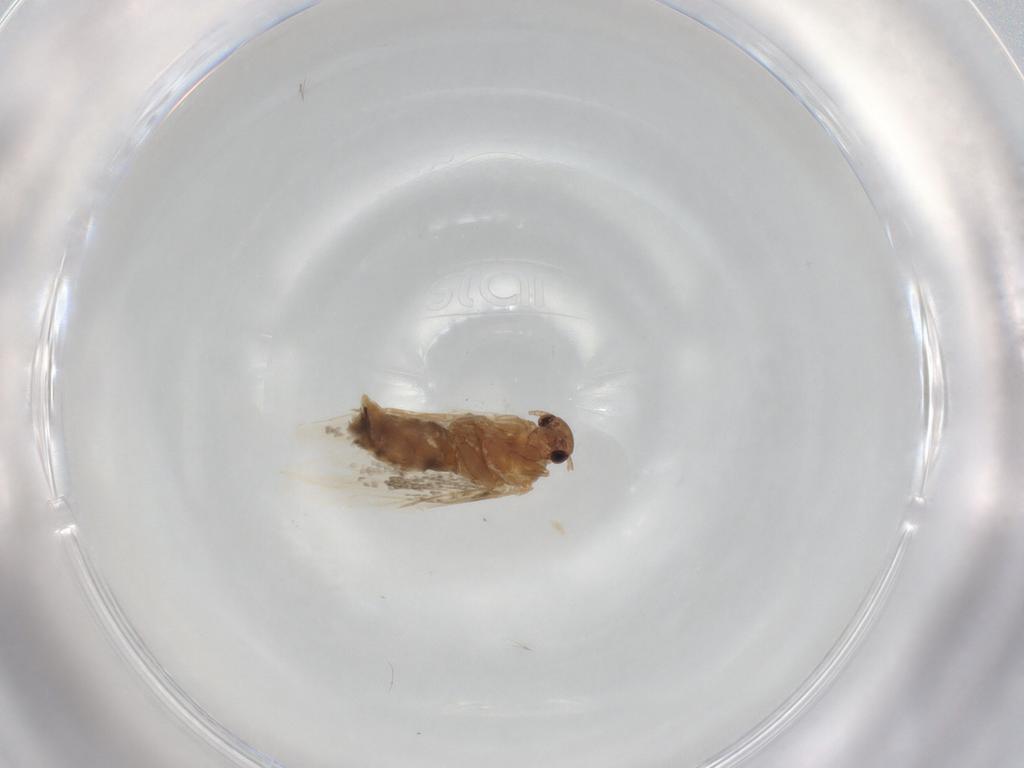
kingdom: Animalia
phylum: Arthropoda
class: Insecta
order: Lepidoptera
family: Elachistidae
